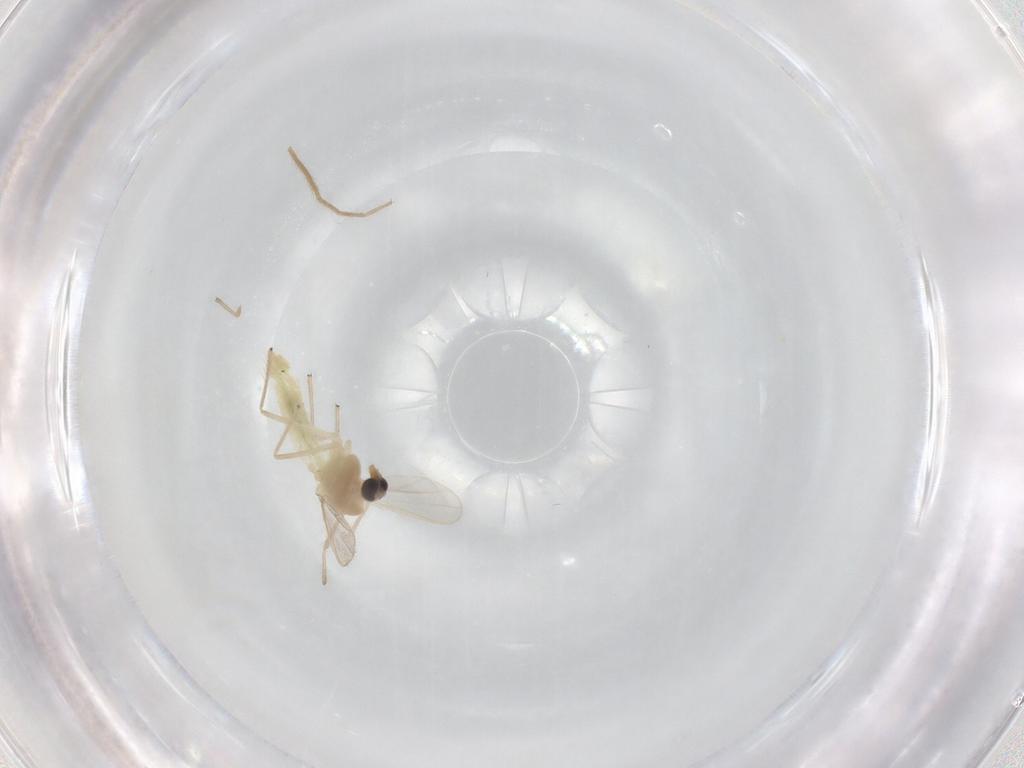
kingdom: Animalia
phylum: Arthropoda
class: Insecta
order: Diptera
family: Chironomidae
